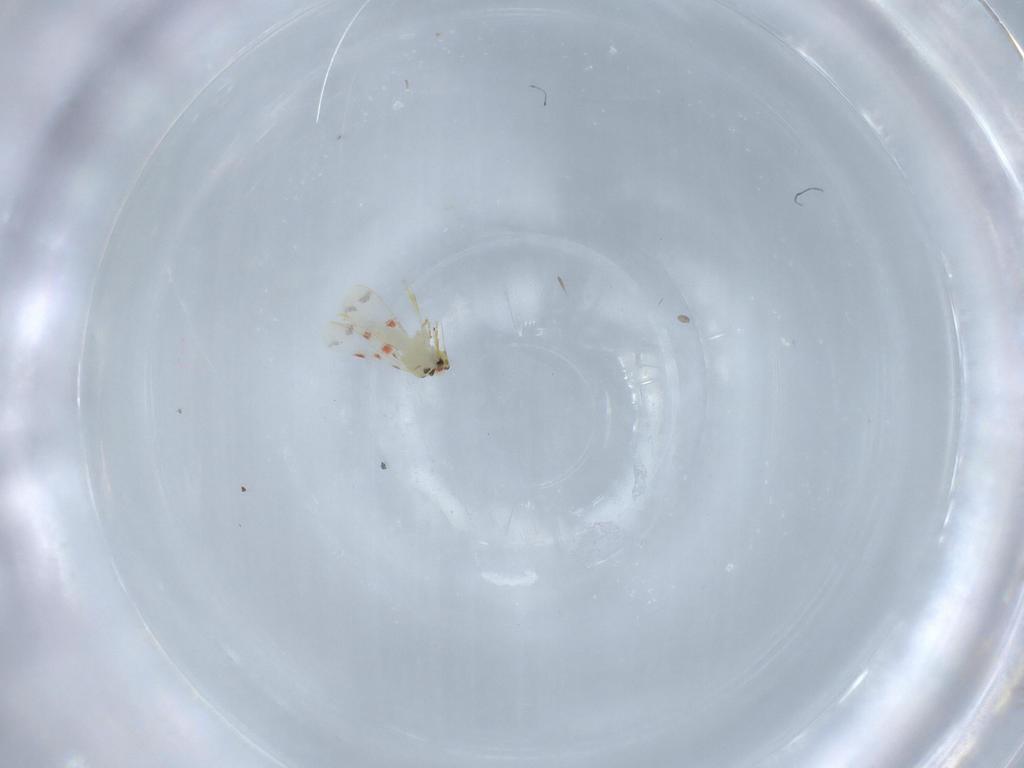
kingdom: Animalia
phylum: Arthropoda
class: Insecta
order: Hemiptera
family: Aleyrodidae
